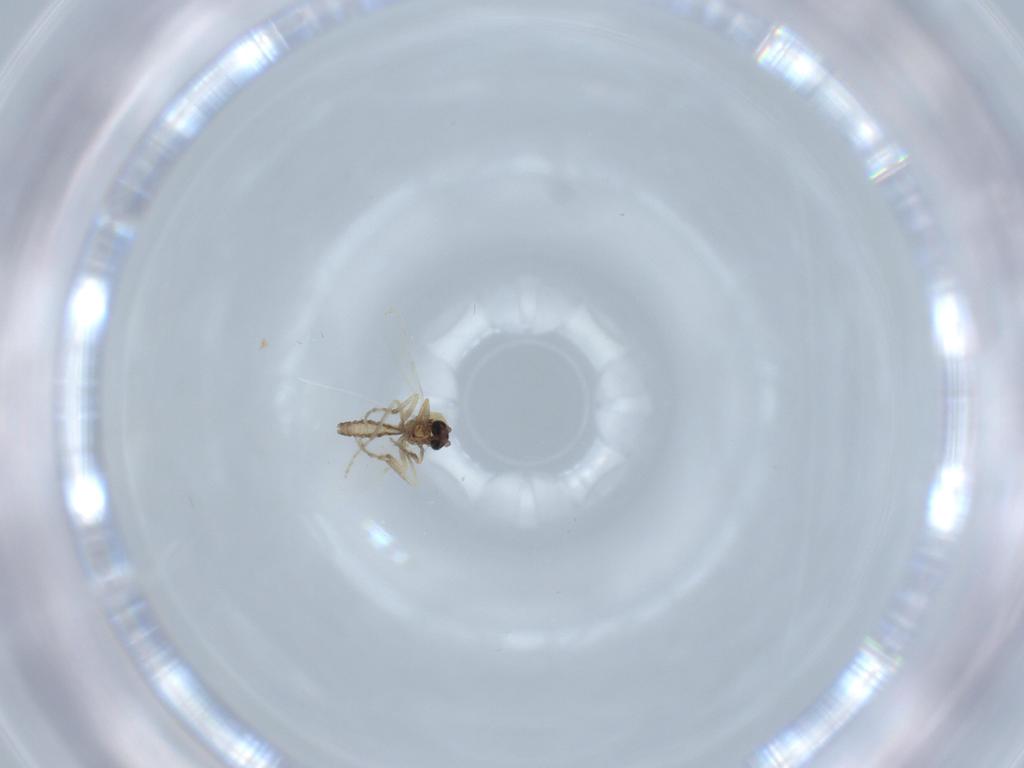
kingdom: Animalia
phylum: Arthropoda
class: Insecta
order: Diptera
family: Ceratopogonidae
